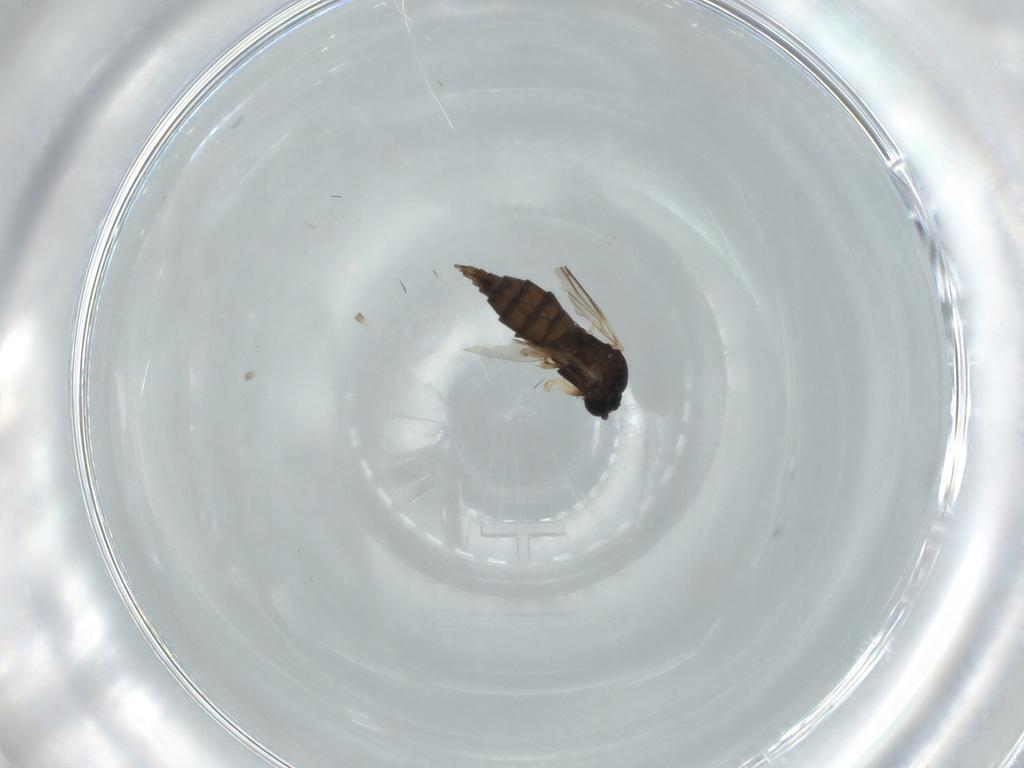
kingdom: Animalia
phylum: Arthropoda
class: Insecta
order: Diptera
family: Sciaridae
